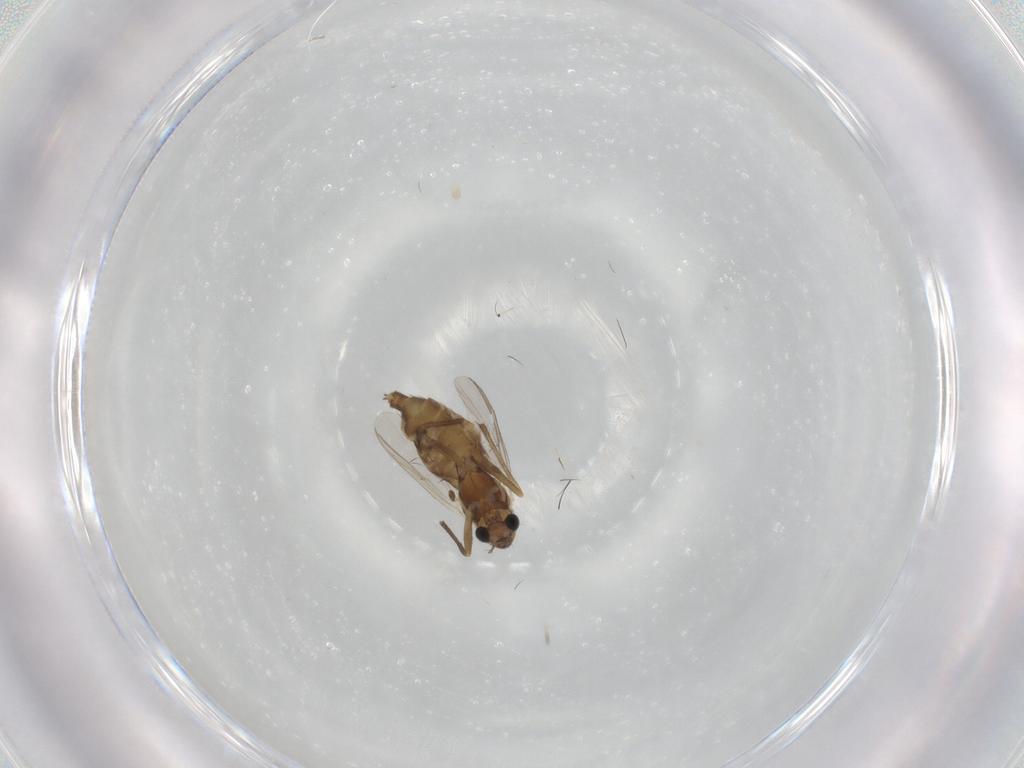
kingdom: Animalia
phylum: Arthropoda
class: Insecta
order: Diptera
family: Chironomidae
